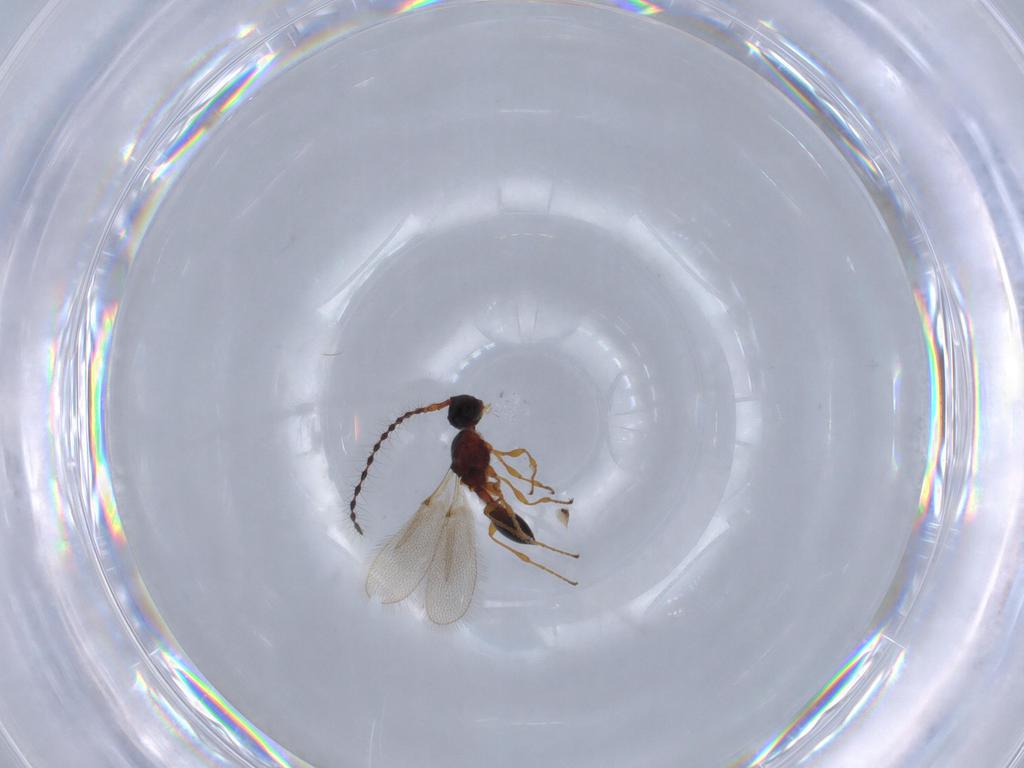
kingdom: Animalia
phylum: Arthropoda
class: Insecta
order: Hymenoptera
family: Diapriidae
